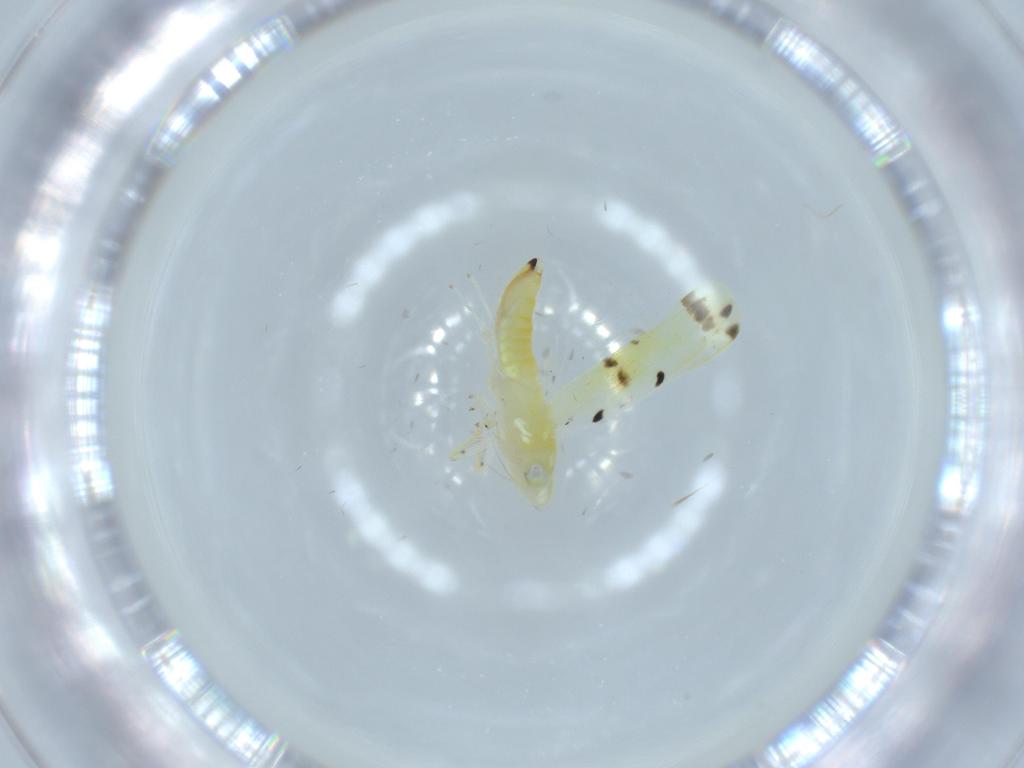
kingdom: Animalia
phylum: Arthropoda
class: Insecta
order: Hemiptera
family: Cicadellidae
